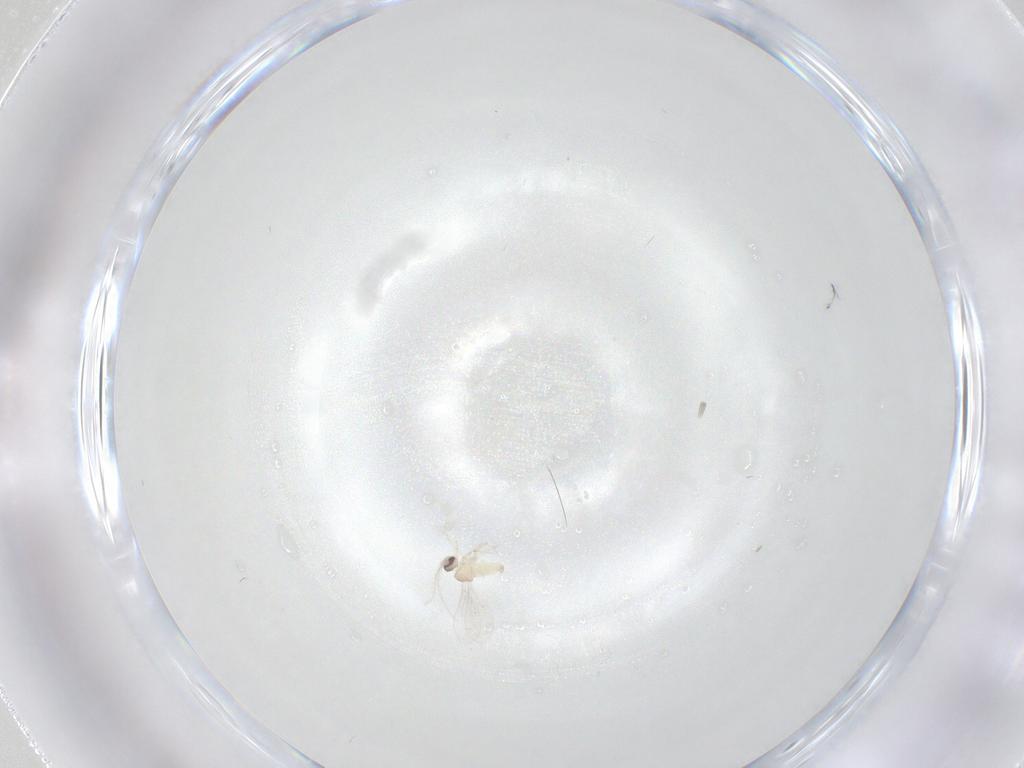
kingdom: Animalia
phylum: Arthropoda
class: Insecta
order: Diptera
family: Cecidomyiidae
